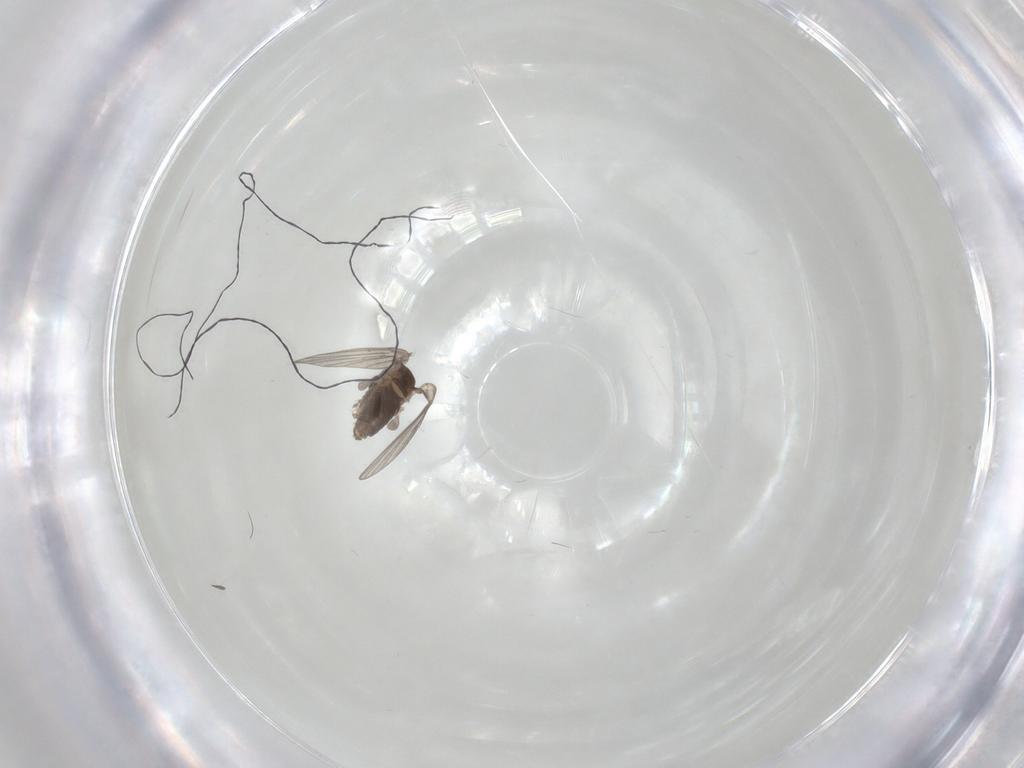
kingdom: Animalia
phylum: Arthropoda
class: Insecta
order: Diptera
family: Psychodidae
